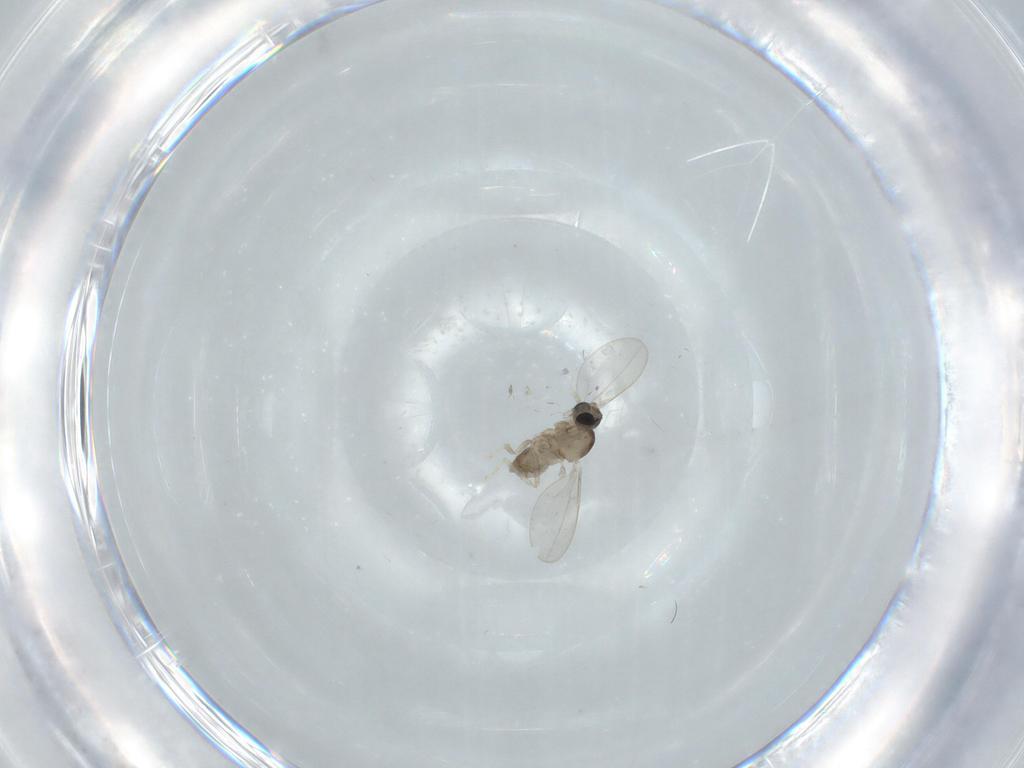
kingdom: Animalia
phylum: Arthropoda
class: Insecta
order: Diptera
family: Cecidomyiidae
